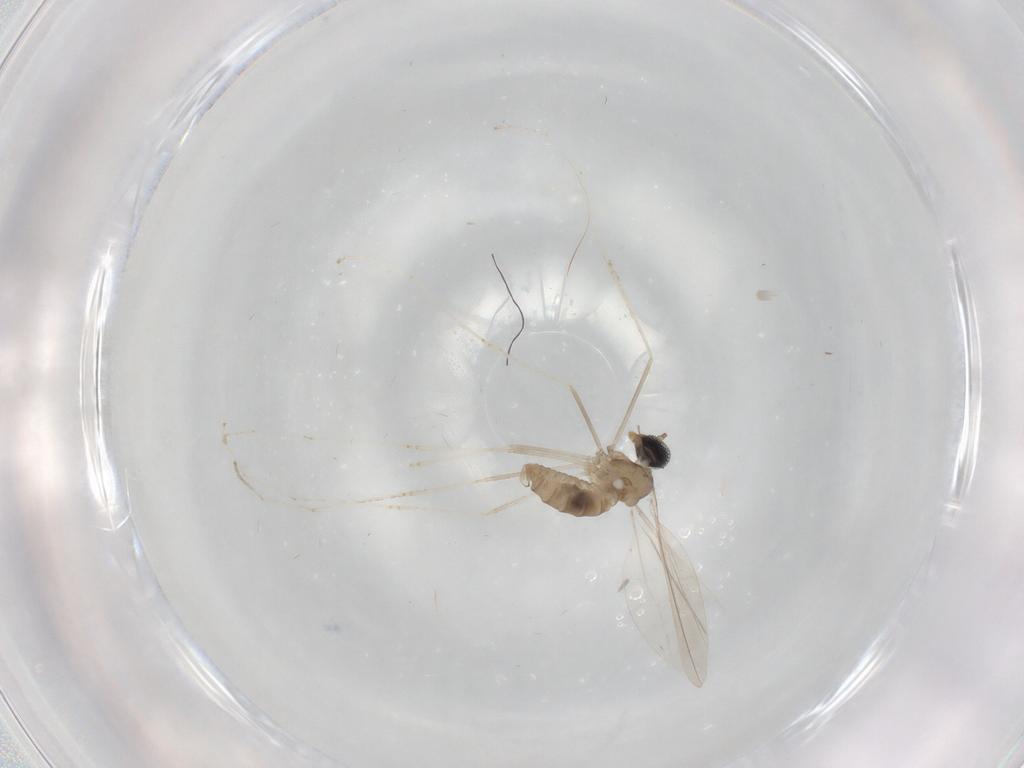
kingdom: Animalia
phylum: Arthropoda
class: Insecta
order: Diptera
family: Cecidomyiidae
